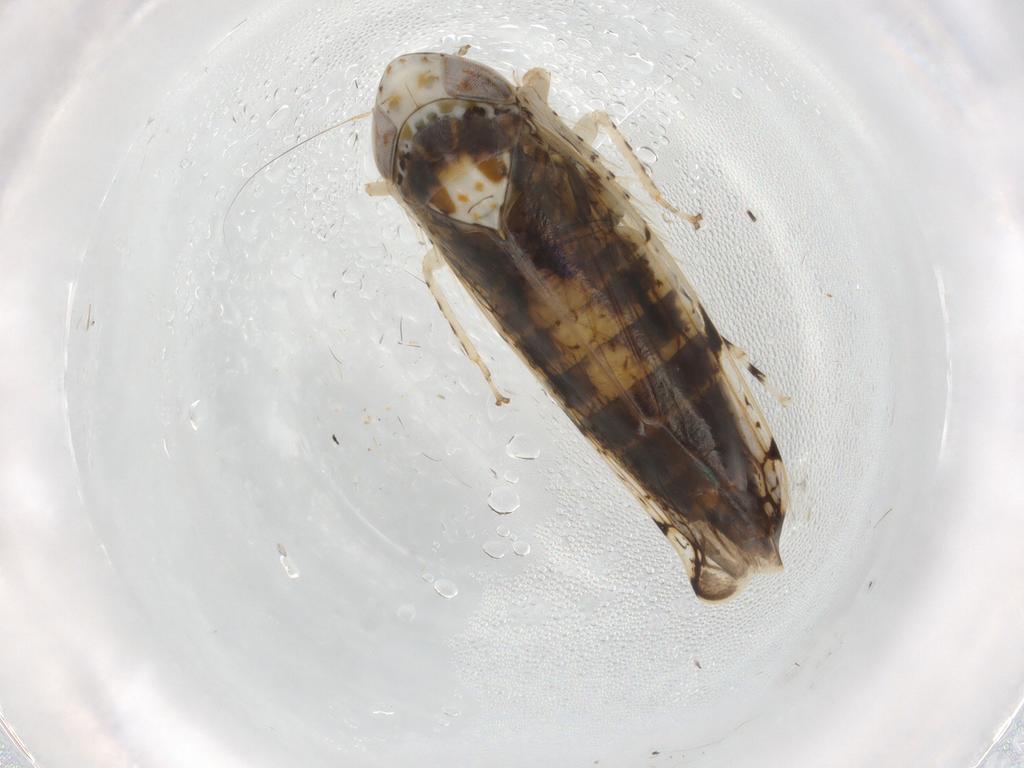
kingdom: Animalia
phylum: Arthropoda
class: Insecta
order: Hemiptera
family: Cicadellidae
